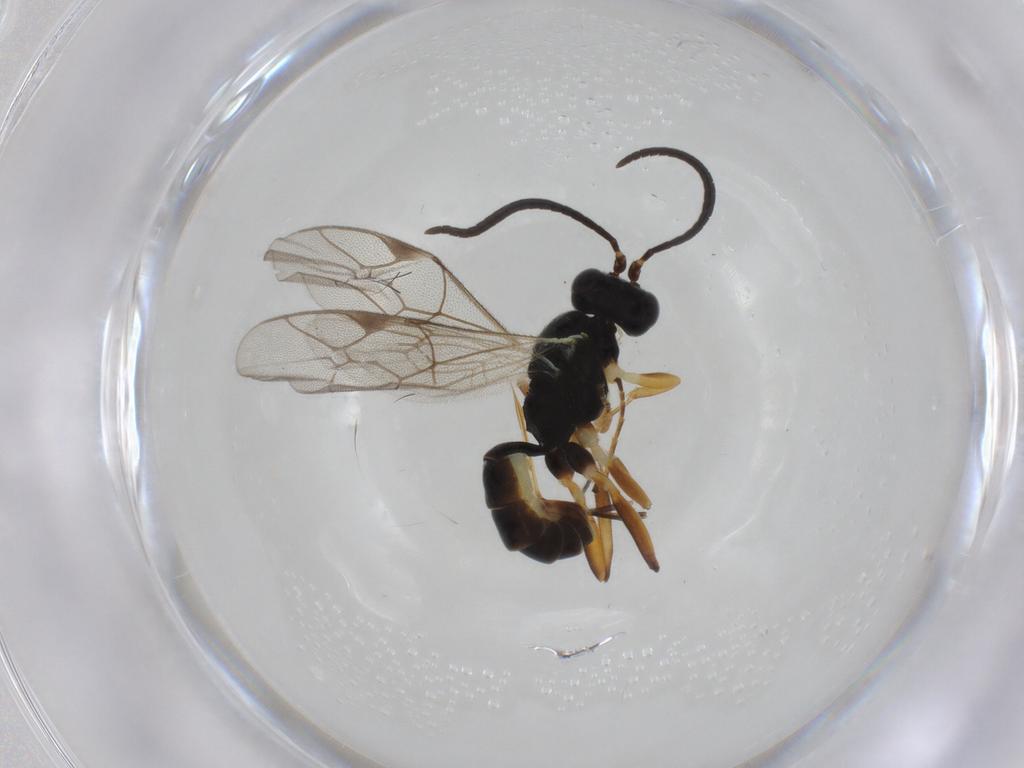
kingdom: Animalia
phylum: Arthropoda
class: Insecta
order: Hymenoptera
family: Ichneumonidae
